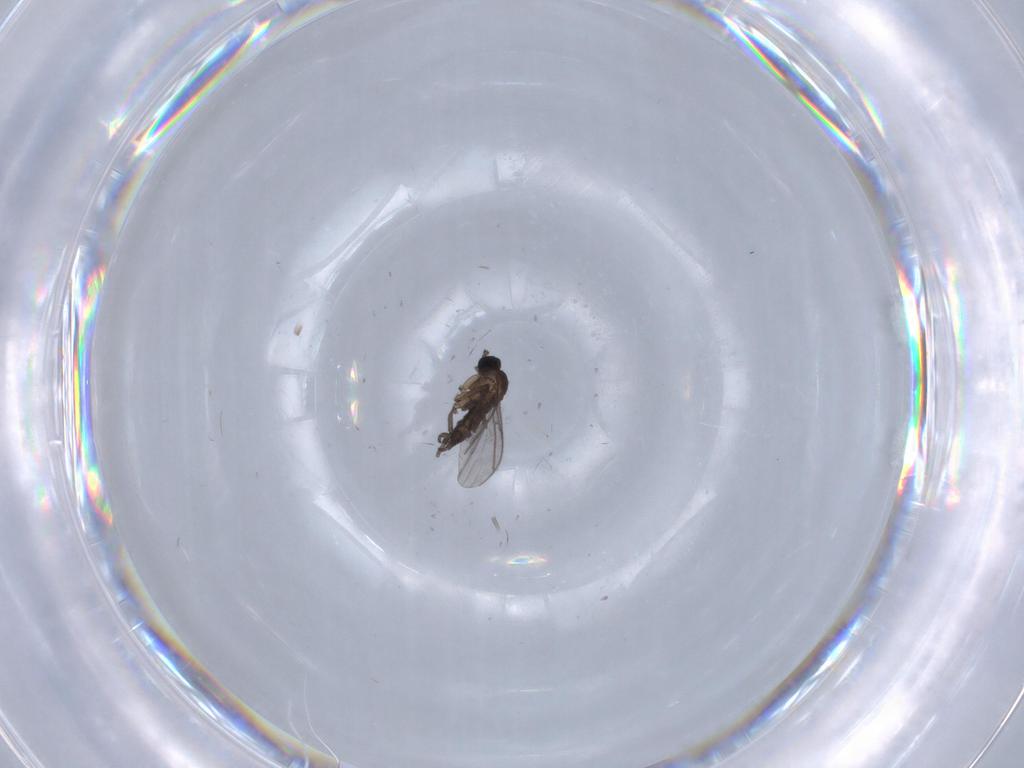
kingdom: Animalia
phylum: Arthropoda
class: Insecta
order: Diptera
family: Ceratopogonidae
